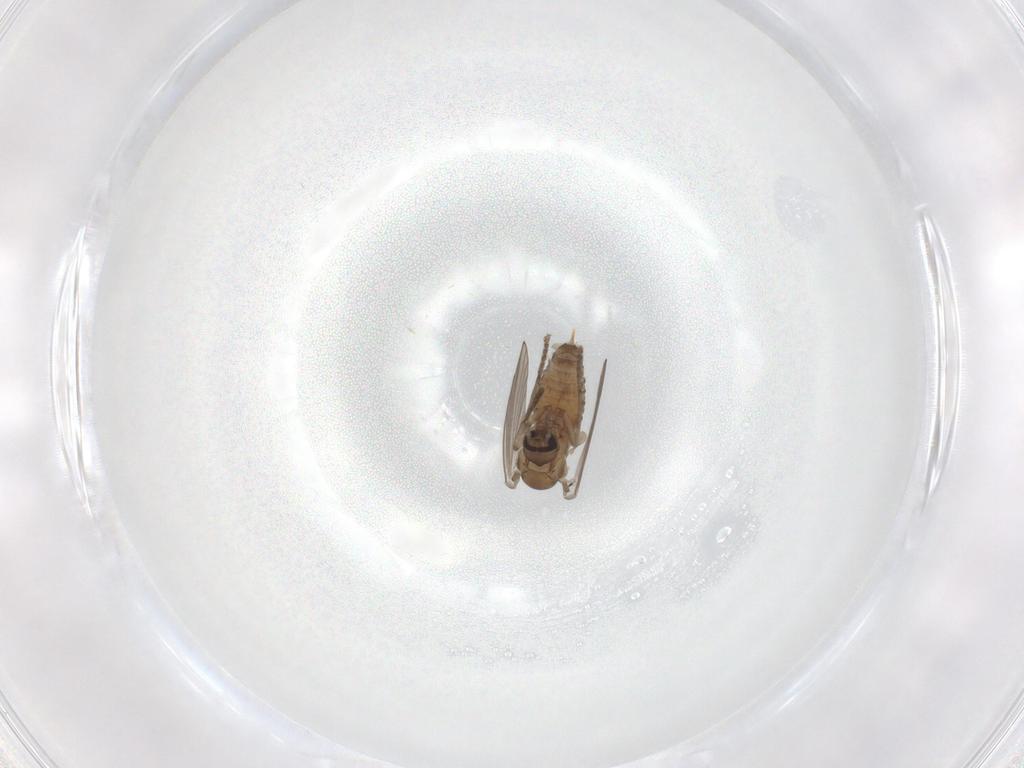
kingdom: Animalia
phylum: Arthropoda
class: Insecta
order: Diptera
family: Psychodidae
